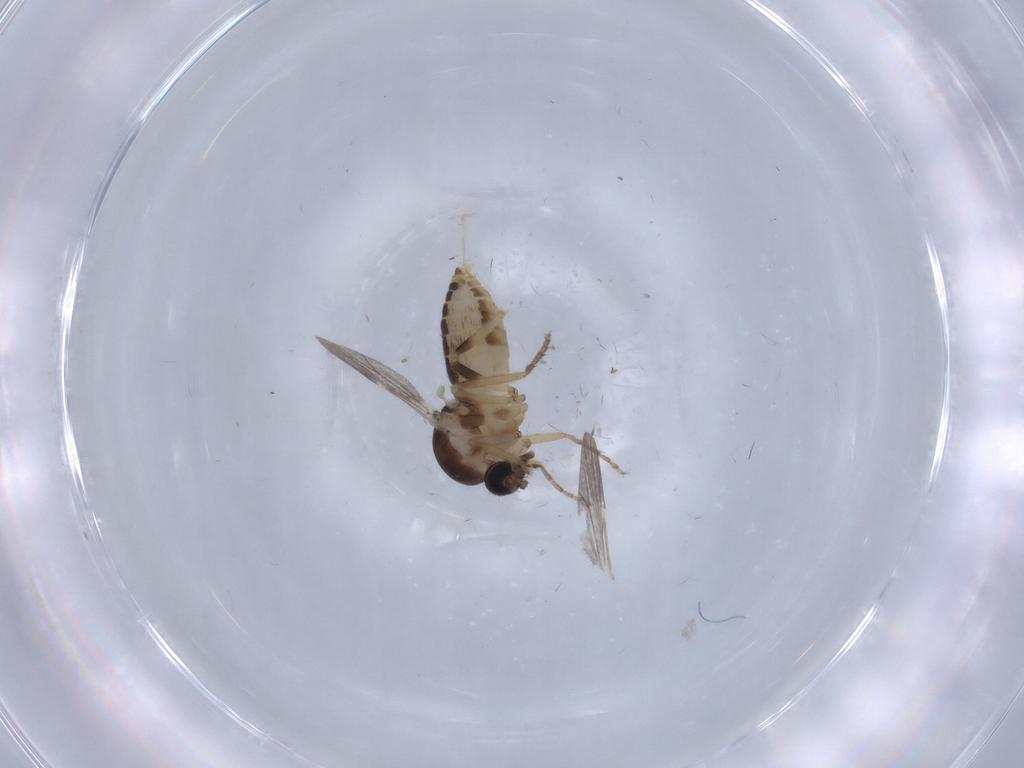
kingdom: Animalia
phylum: Arthropoda
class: Insecta
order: Diptera
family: Ceratopogonidae
